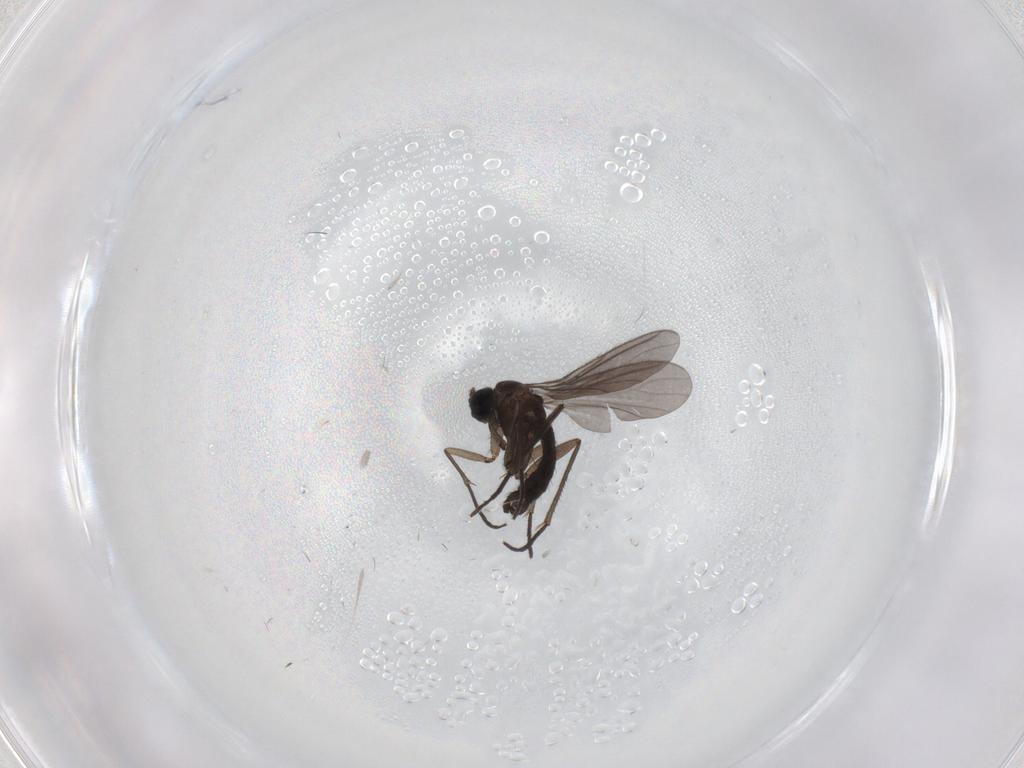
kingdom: Animalia
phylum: Arthropoda
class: Insecta
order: Diptera
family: Sciaridae
